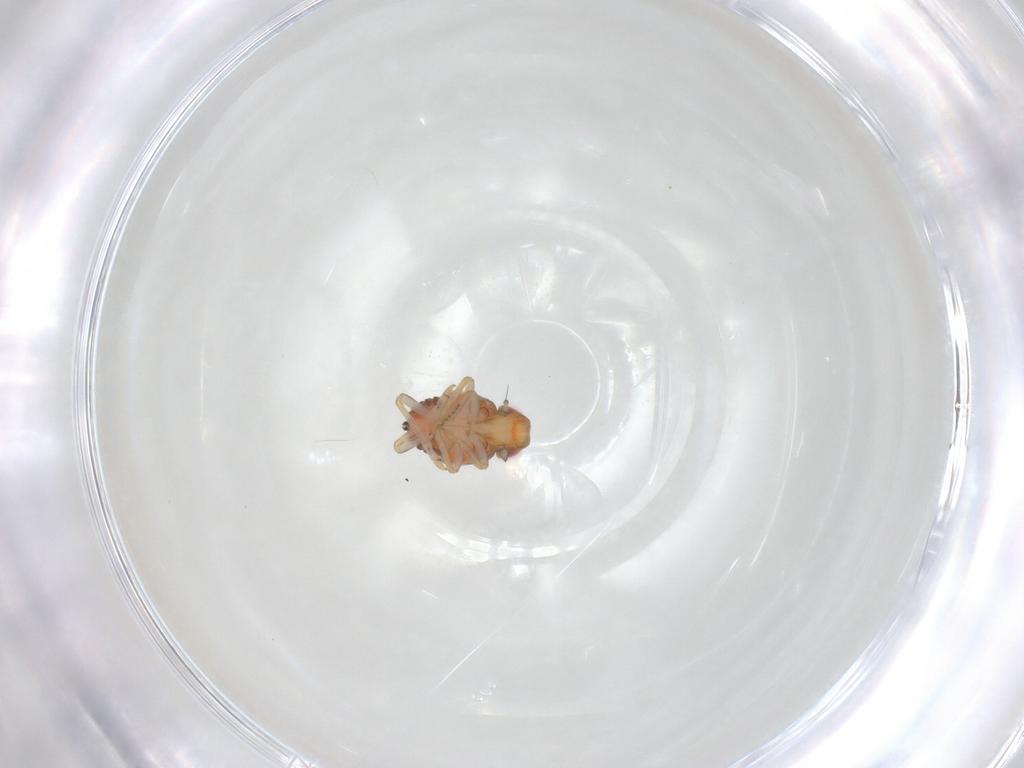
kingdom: Animalia
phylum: Arthropoda
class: Insecta
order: Hemiptera
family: Issidae
